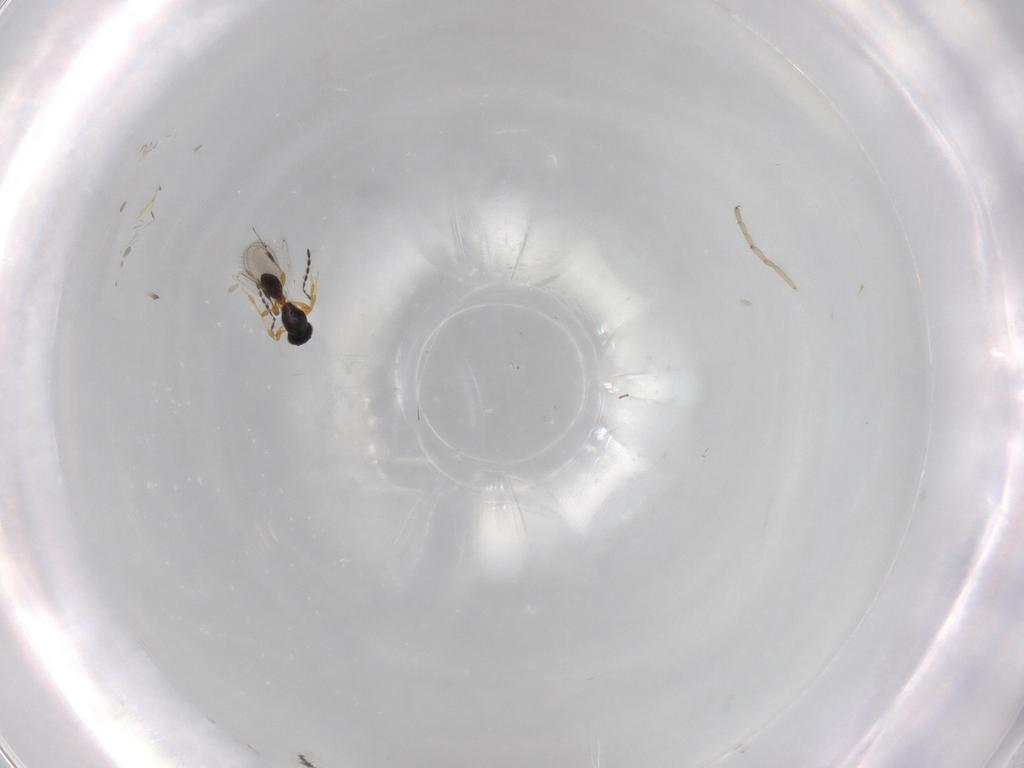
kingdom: Animalia
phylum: Arthropoda
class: Insecta
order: Hymenoptera
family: Platygastridae
